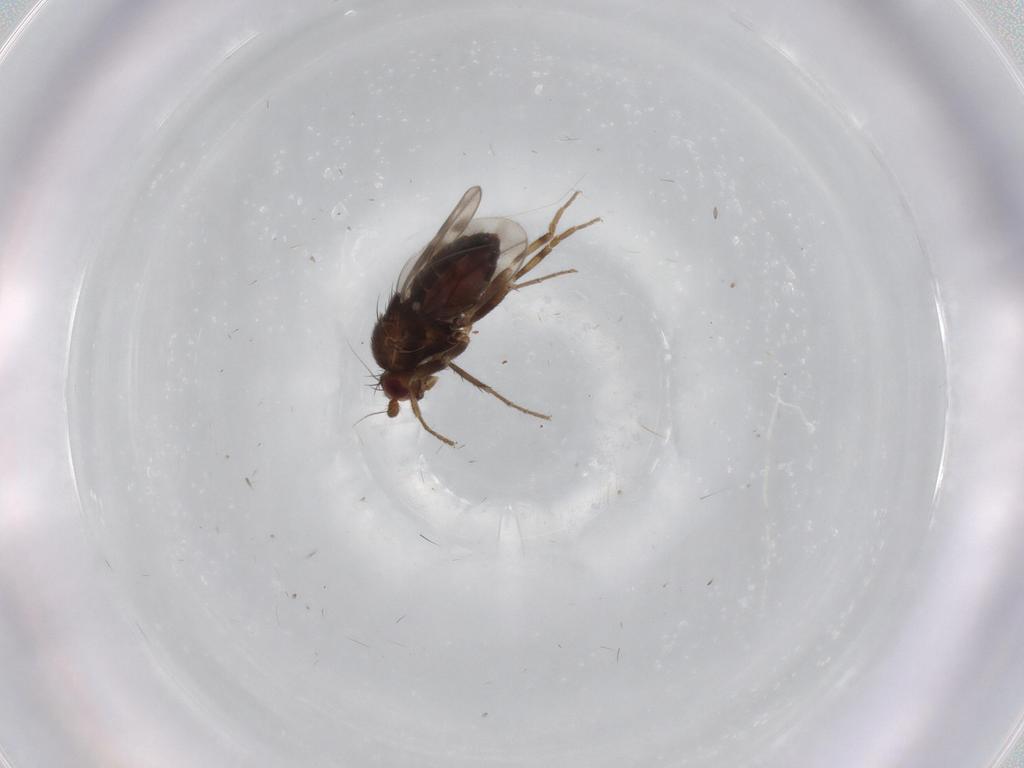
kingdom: Animalia
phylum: Arthropoda
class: Insecta
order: Diptera
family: Sphaeroceridae
